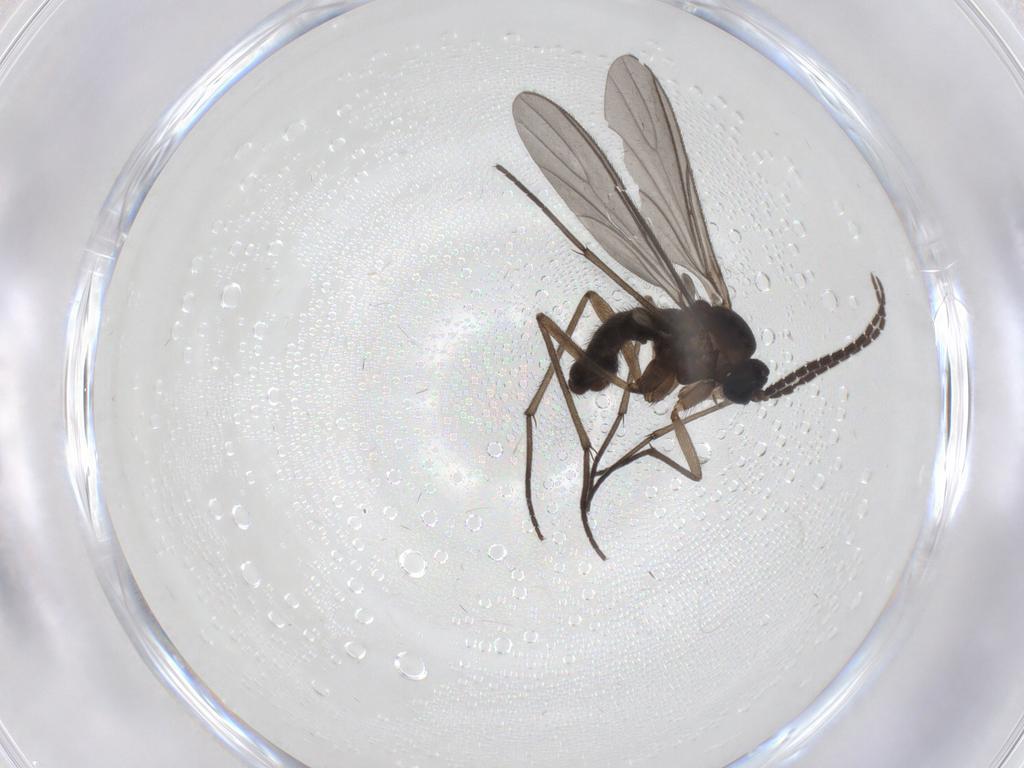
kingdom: Animalia
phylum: Arthropoda
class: Insecta
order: Diptera
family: Sciaridae
